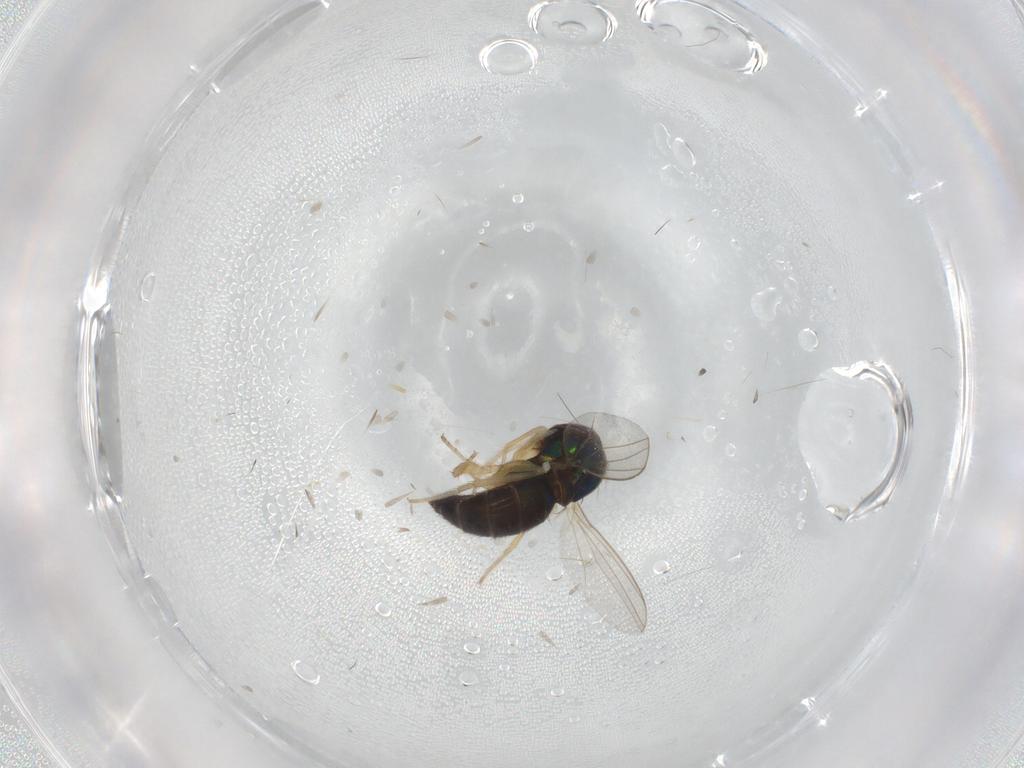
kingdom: Animalia
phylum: Arthropoda
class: Insecta
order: Diptera
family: Dolichopodidae
